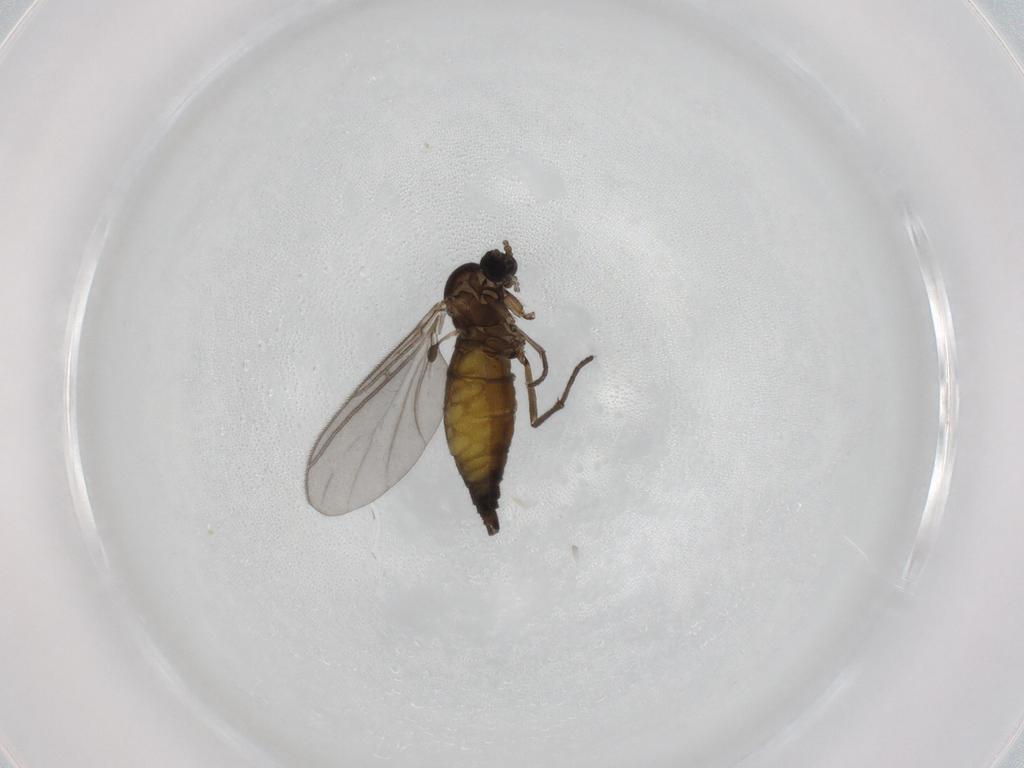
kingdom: Animalia
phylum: Arthropoda
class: Insecta
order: Diptera
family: Sciaridae
